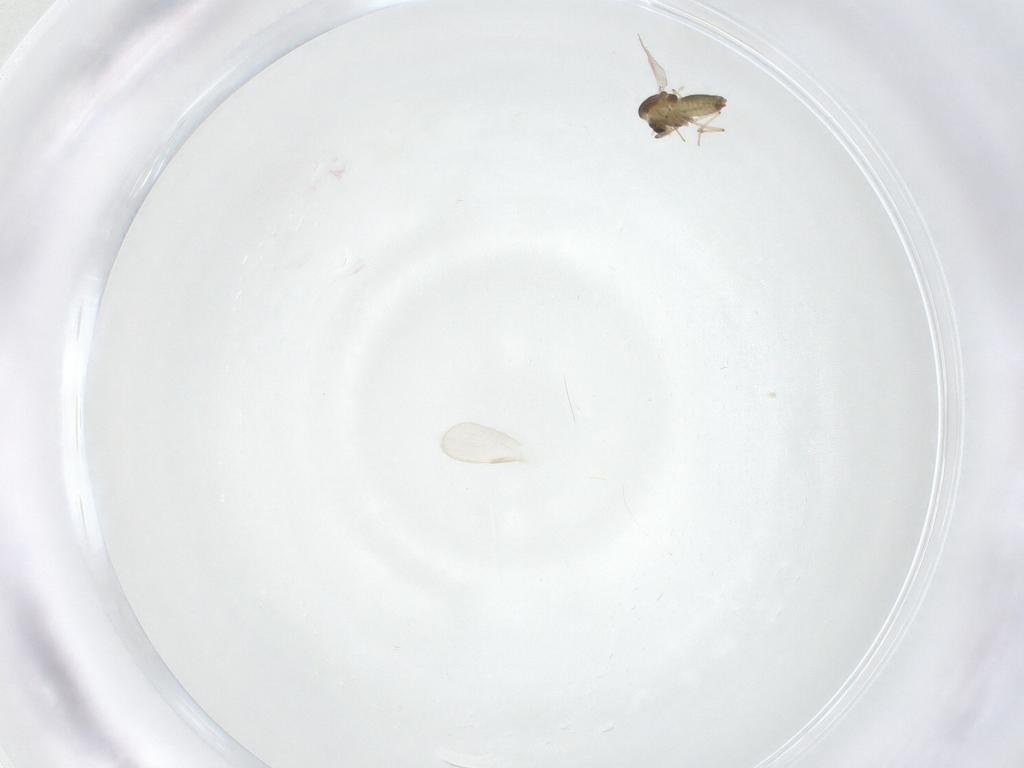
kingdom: Animalia
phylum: Arthropoda
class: Insecta
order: Diptera
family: Chironomidae
